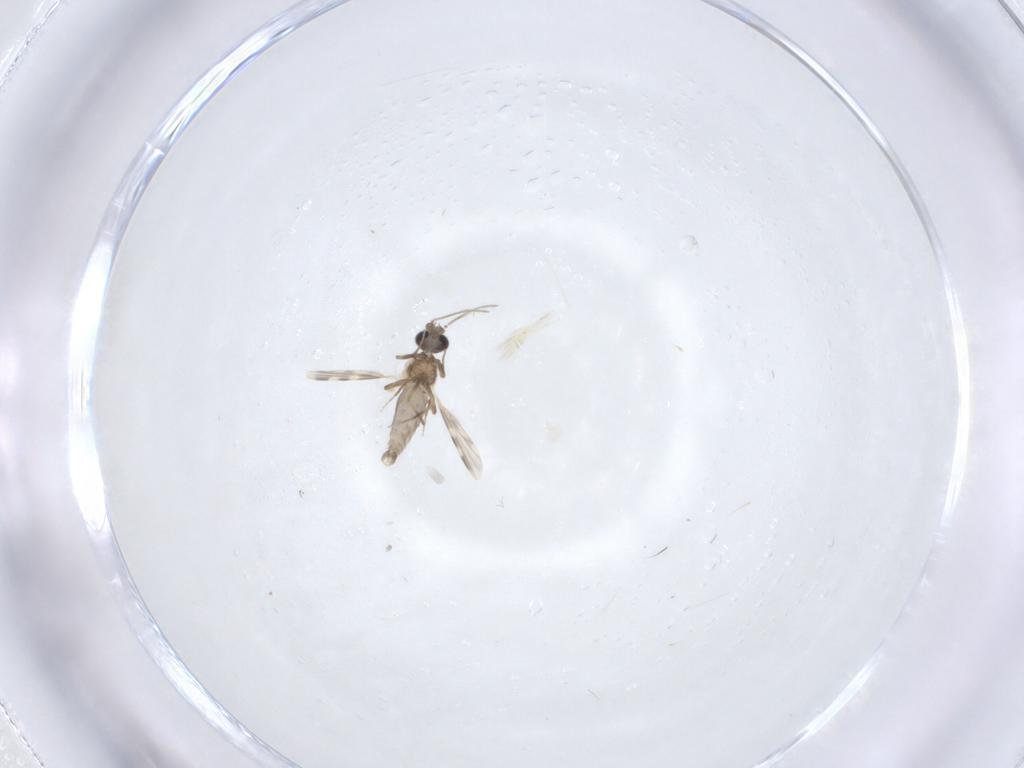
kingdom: Animalia
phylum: Arthropoda
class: Insecta
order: Diptera
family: Ceratopogonidae
